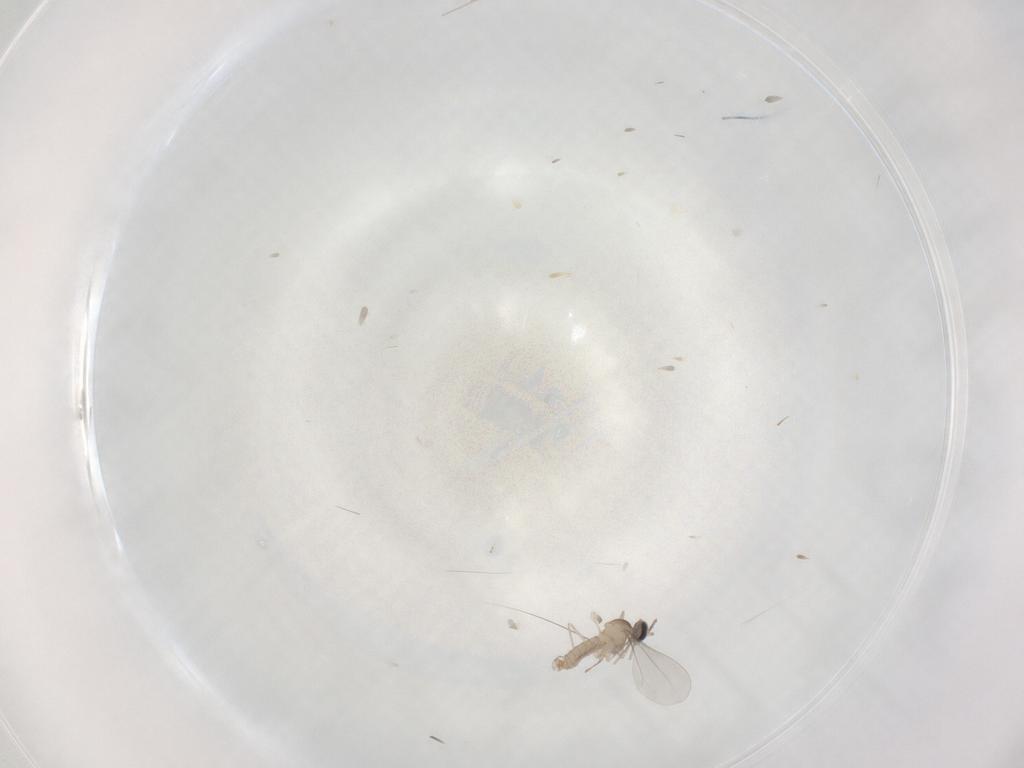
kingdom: Animalia
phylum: Arthropoda
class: Insecta
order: Diptera
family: Cecidomyiidae
